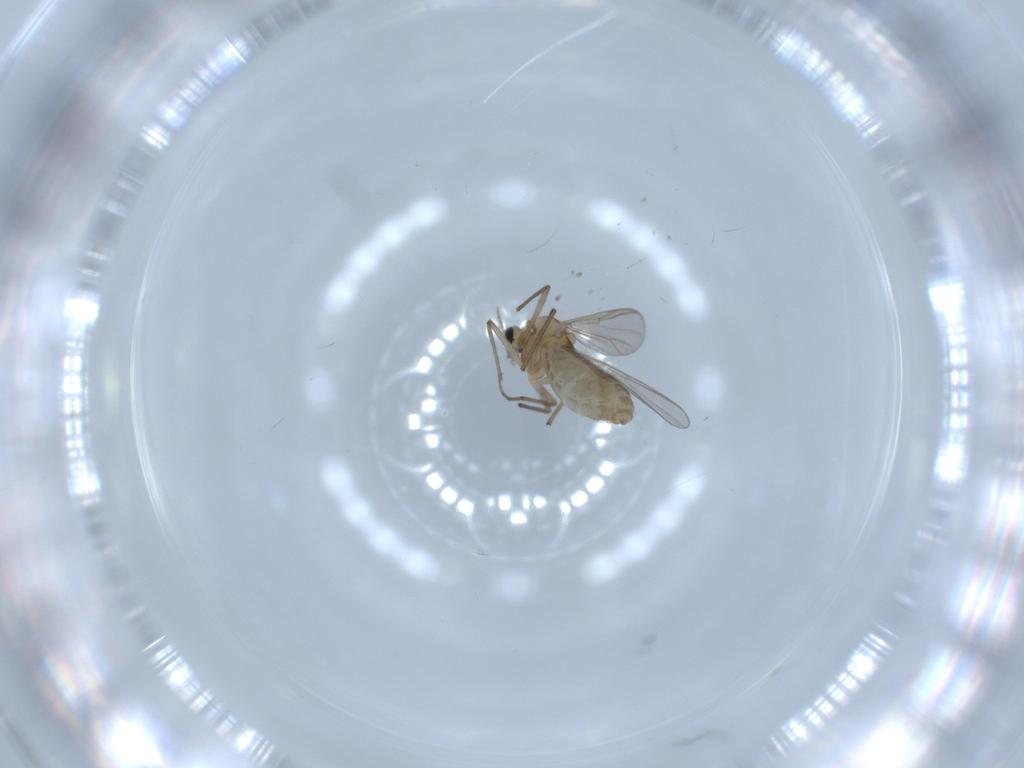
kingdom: Animalia
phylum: Arthropoda
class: Insecta
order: Diptera
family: Chironomidae
